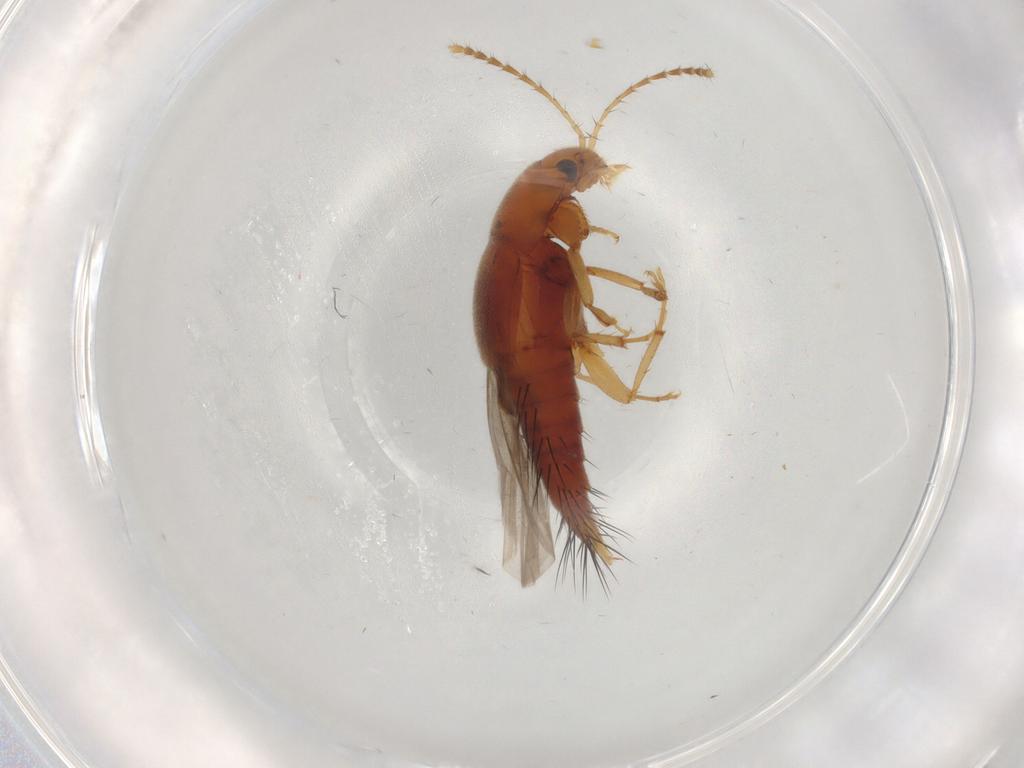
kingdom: Animalia
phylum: Arthropoda
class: Insecta
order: Coleoptera
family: Staphylinidae
